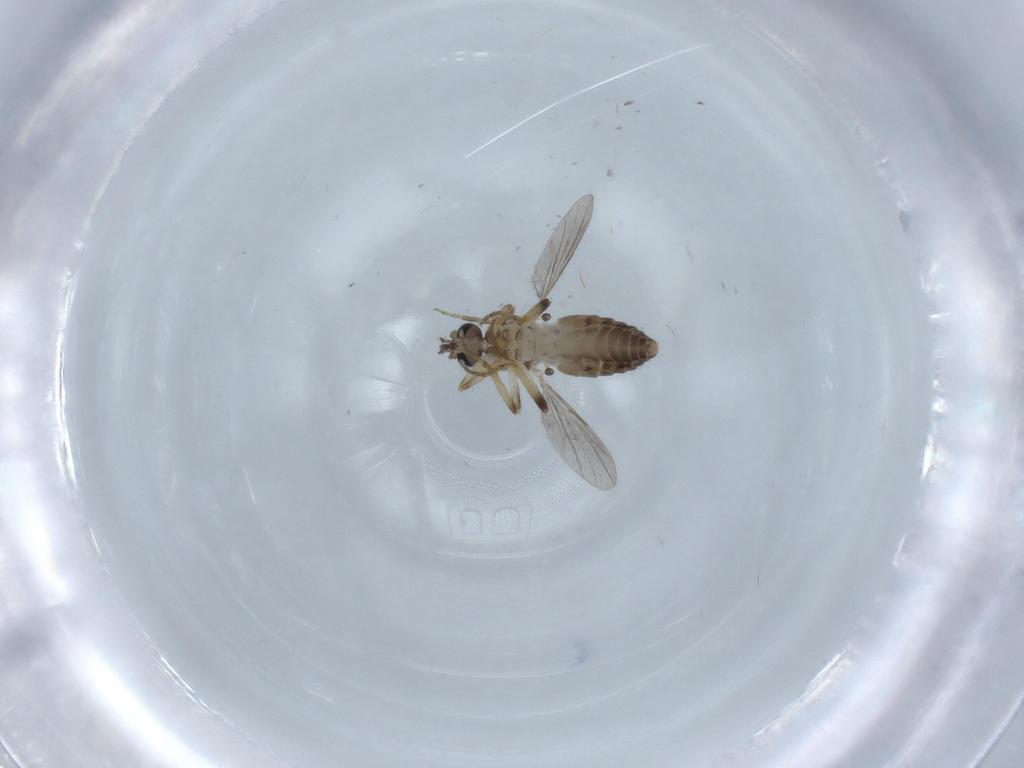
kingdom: Animalia
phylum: Arthropoda
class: Insecta
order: Diptera
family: Ceratopogonidae
